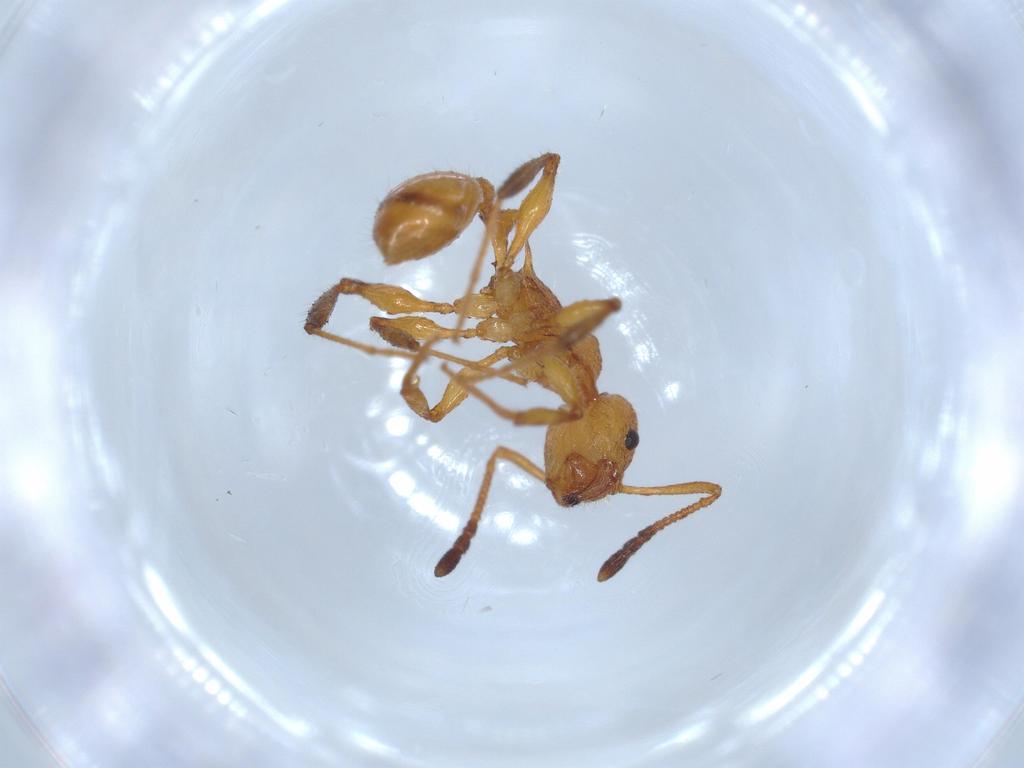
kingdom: Animalia
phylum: Arthropoda
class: Insecta
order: Hymenoptera
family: Formicidae
